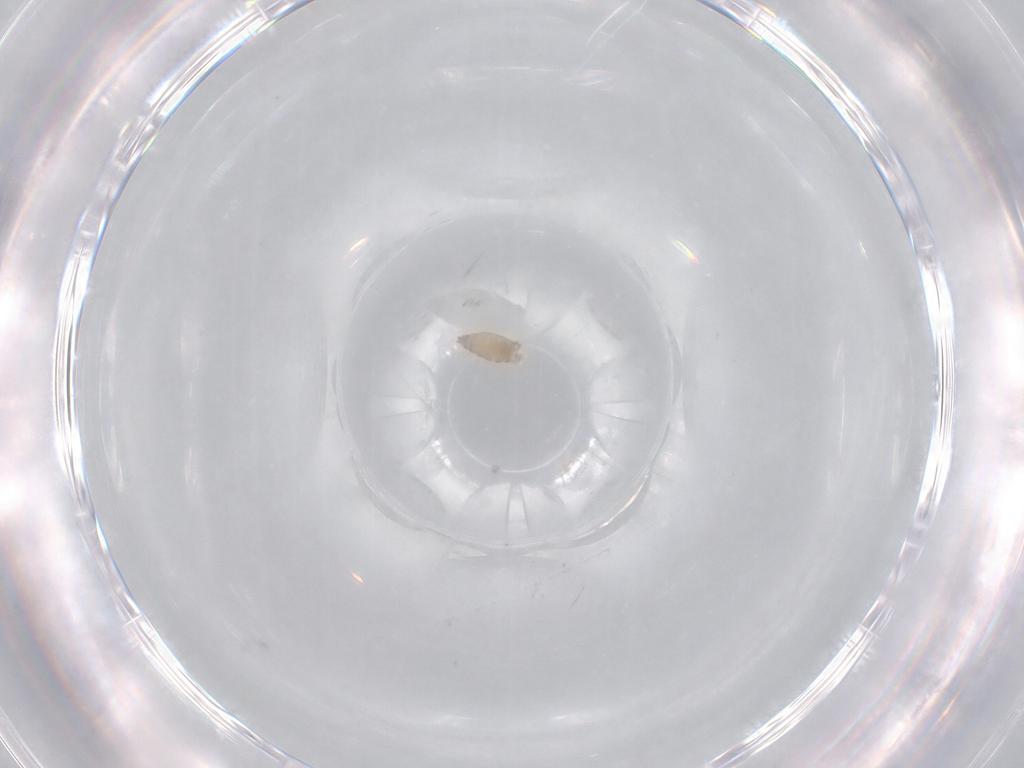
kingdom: Animalia
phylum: Arthropoda
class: Insecta
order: Diptera
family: Cecidomyiidae
